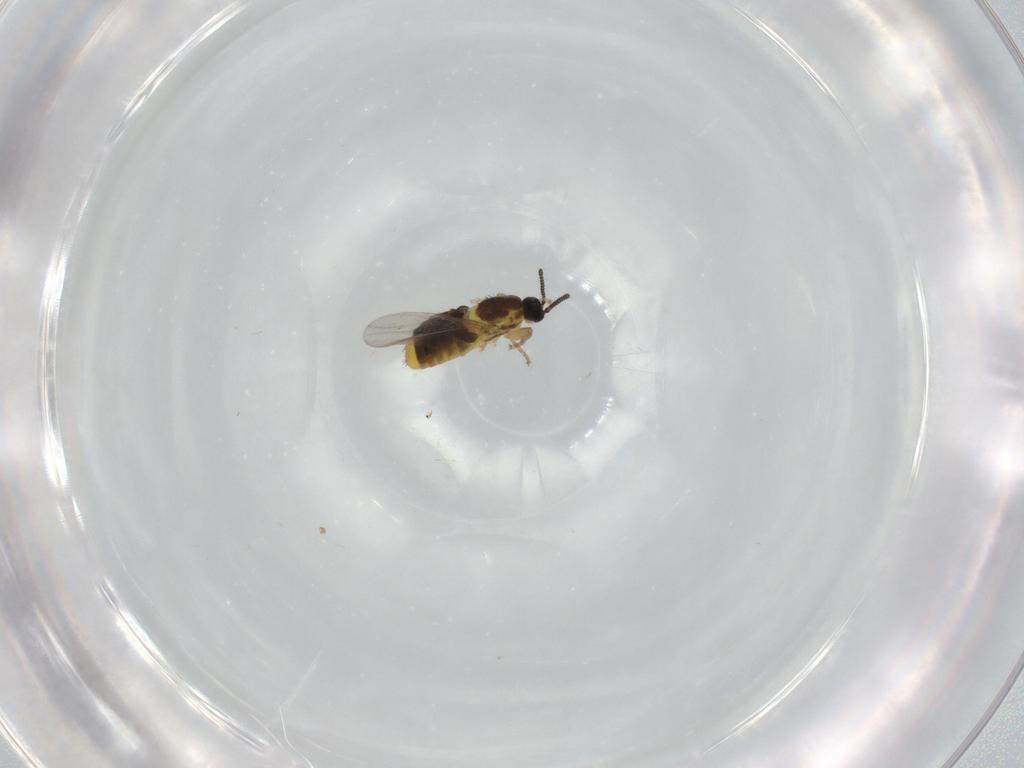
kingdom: Animalia
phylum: Arthropoda
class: Insecta
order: Diptera
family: Scatopsidae
